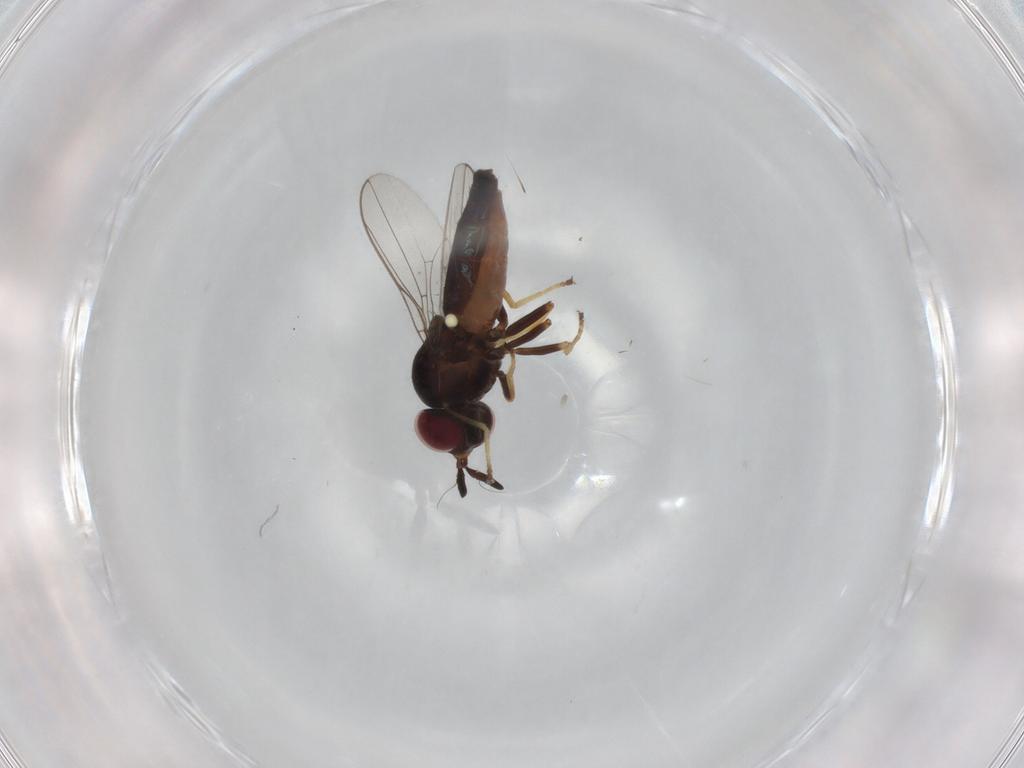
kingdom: Animalia
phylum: Arthropoda
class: Insecta
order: Diptera
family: Chloropidae
